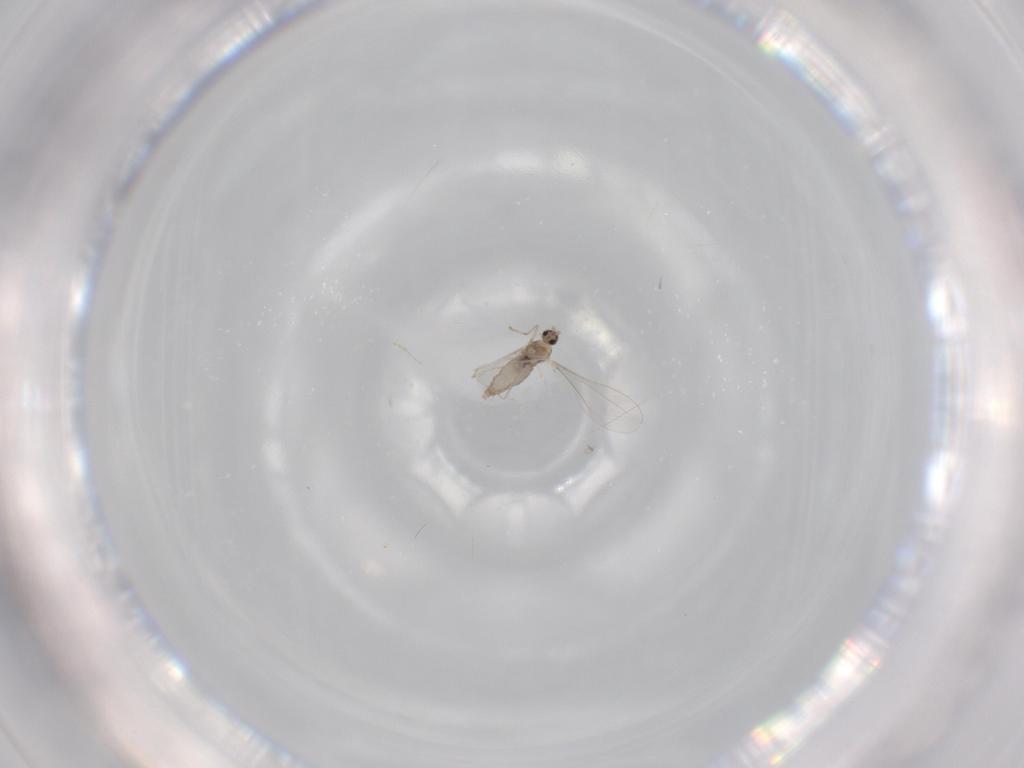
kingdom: Animalia
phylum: Arthropoda
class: Insecta
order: Diptera
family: Cecidomyiidae
